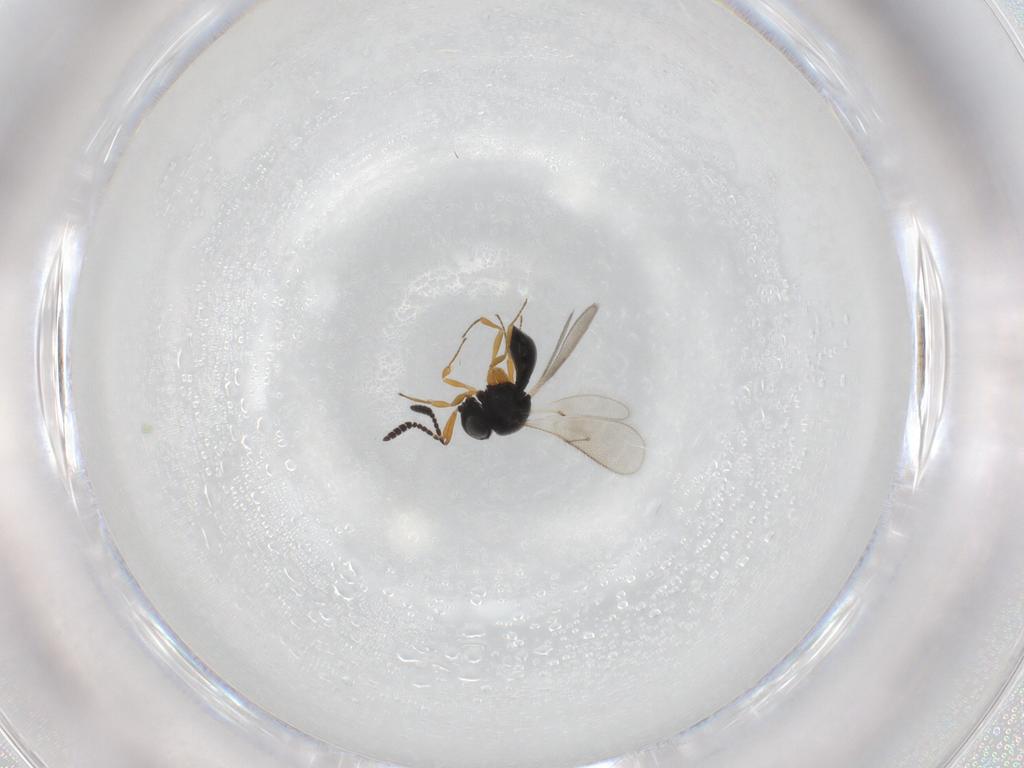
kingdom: Animalia
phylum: Arthropoda
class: Insecta
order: Hymenoptera
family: Scelionidae
